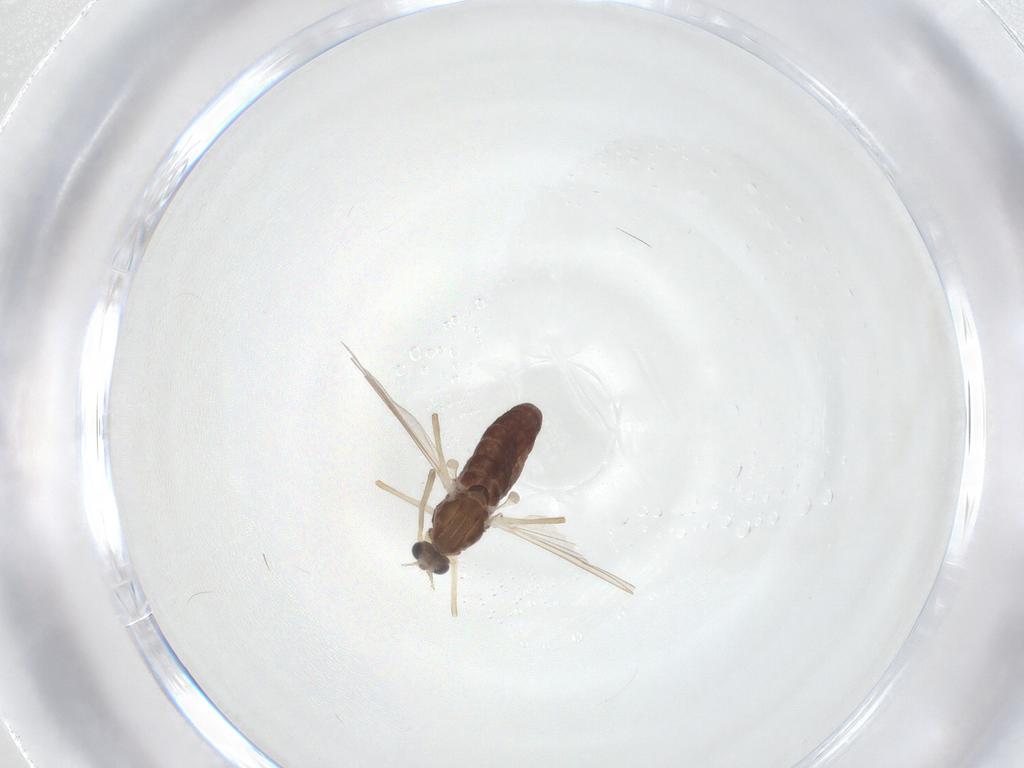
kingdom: Animalia
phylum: Arthropoda
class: Insecta
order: Diptera
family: Chironomidae
